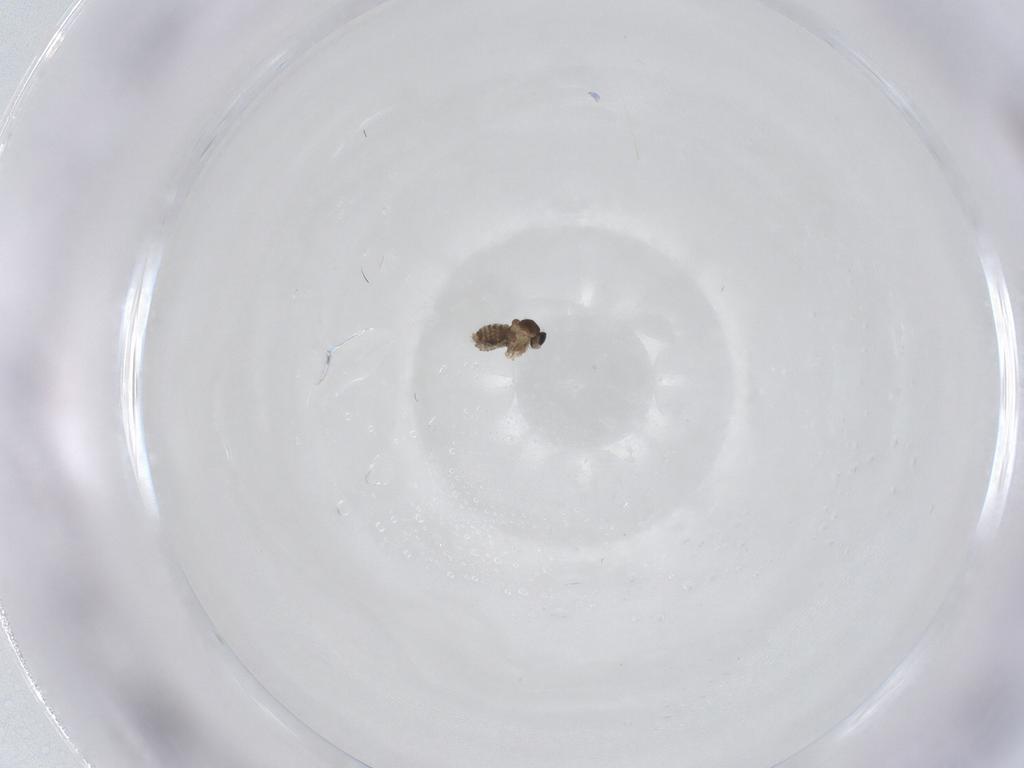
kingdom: Animalia
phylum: Arthropoda
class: Insecta
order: Diptera
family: Cecidomyiidae
